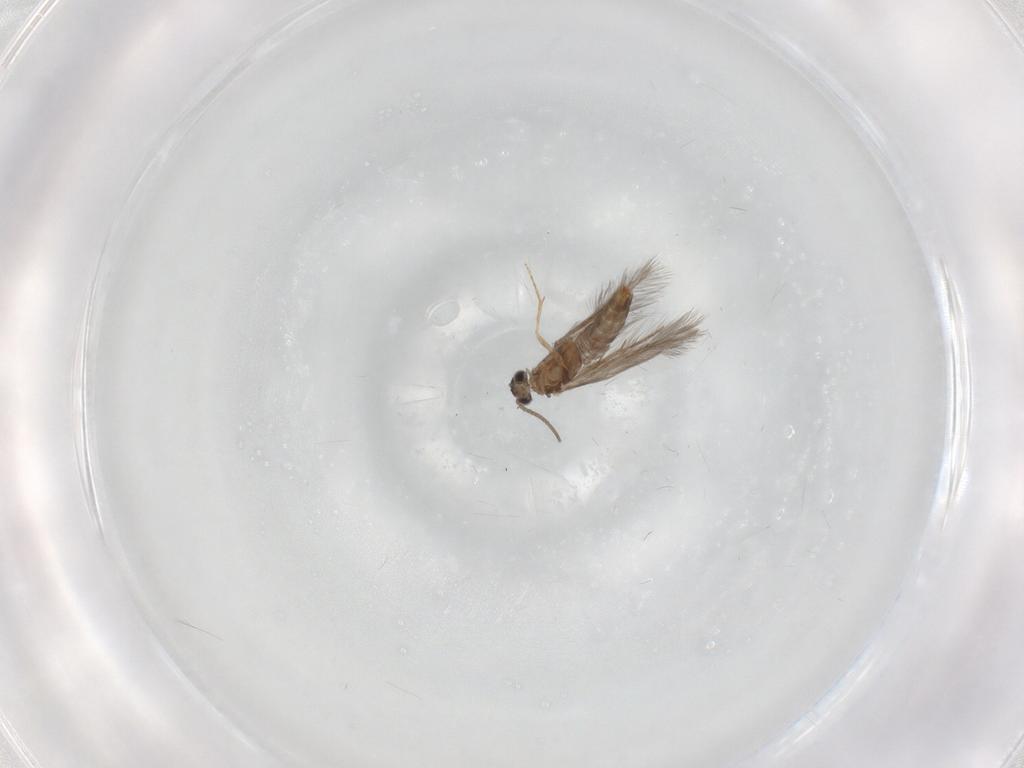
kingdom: Animalia
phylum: Arthropoda
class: Insecta
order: Trichoptera
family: Hydroptilidae
